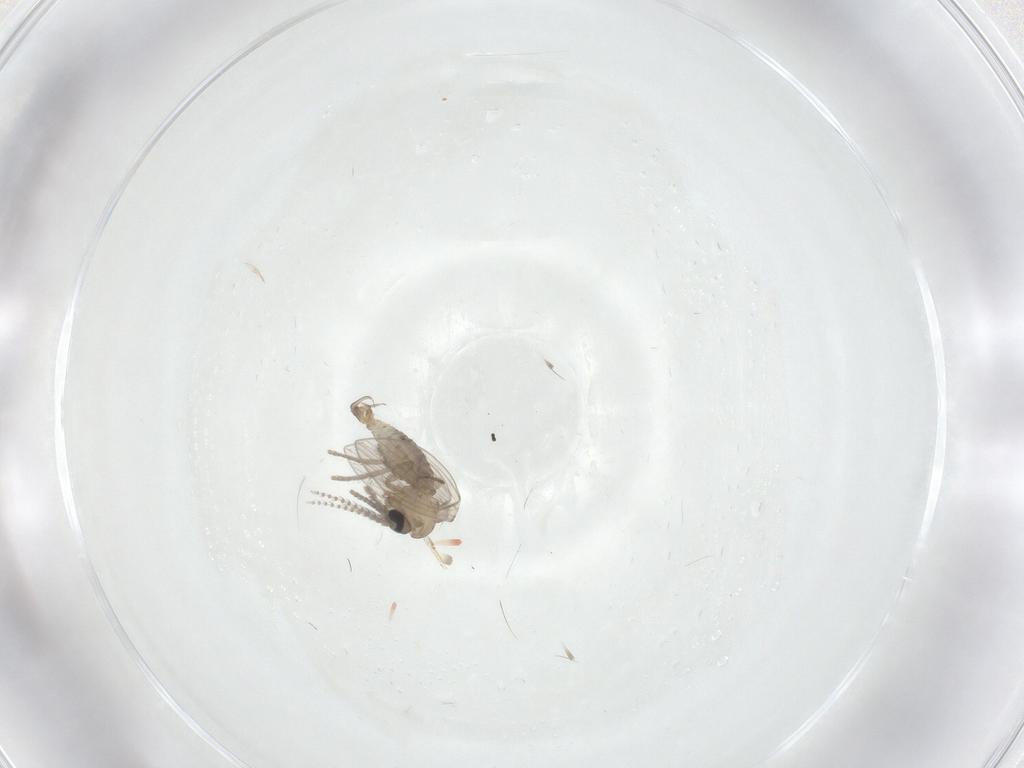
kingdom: Animalia
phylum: Arthropoda
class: Insecta
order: Diptera
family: Psychodidae
